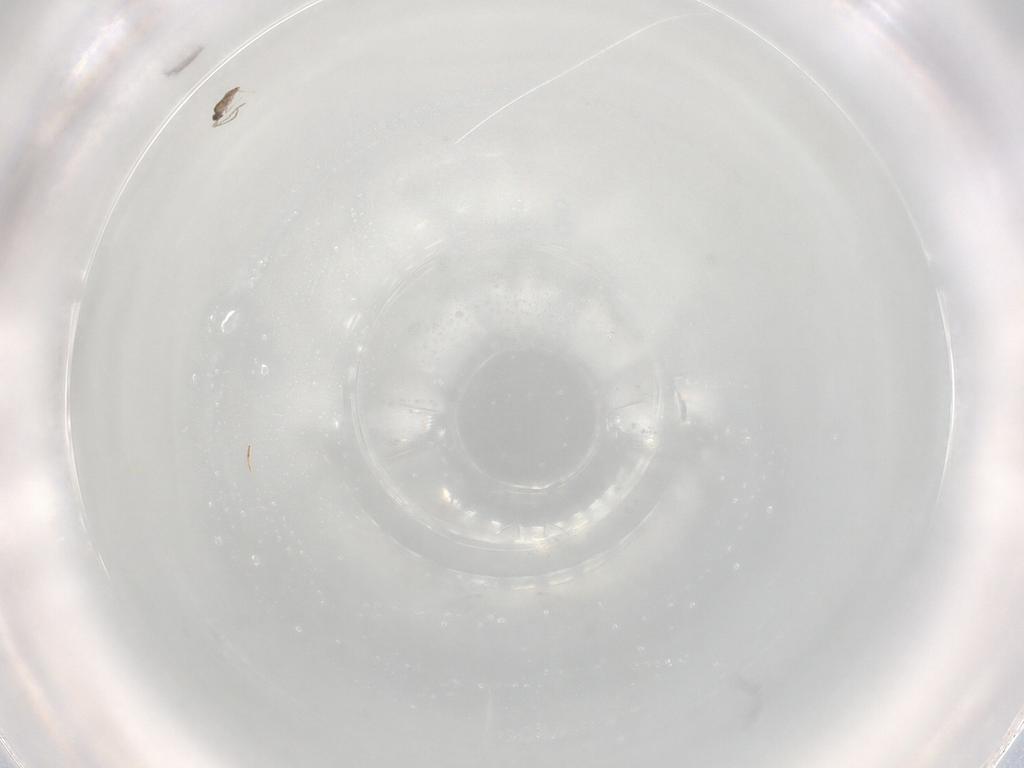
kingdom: Animalia
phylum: Arthropoda
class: Insecta
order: Hymenoptera
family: Mymaridae
